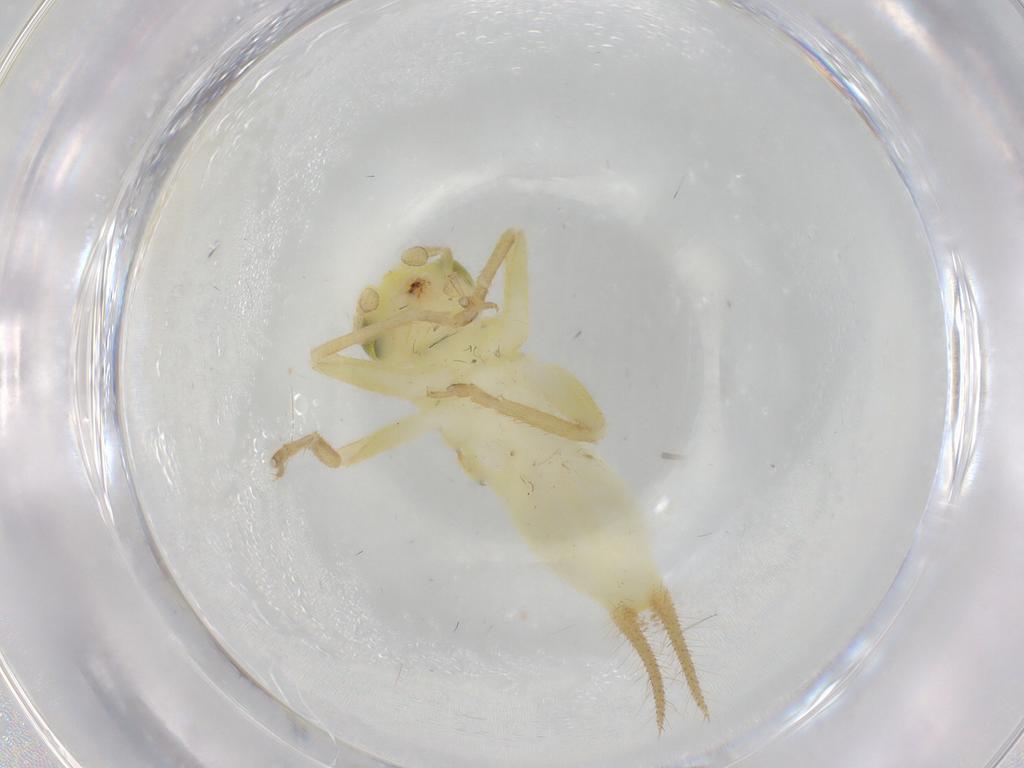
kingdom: Animalia
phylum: Arthropoda
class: Insecta
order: Orthoptera
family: Trigonidiidae
